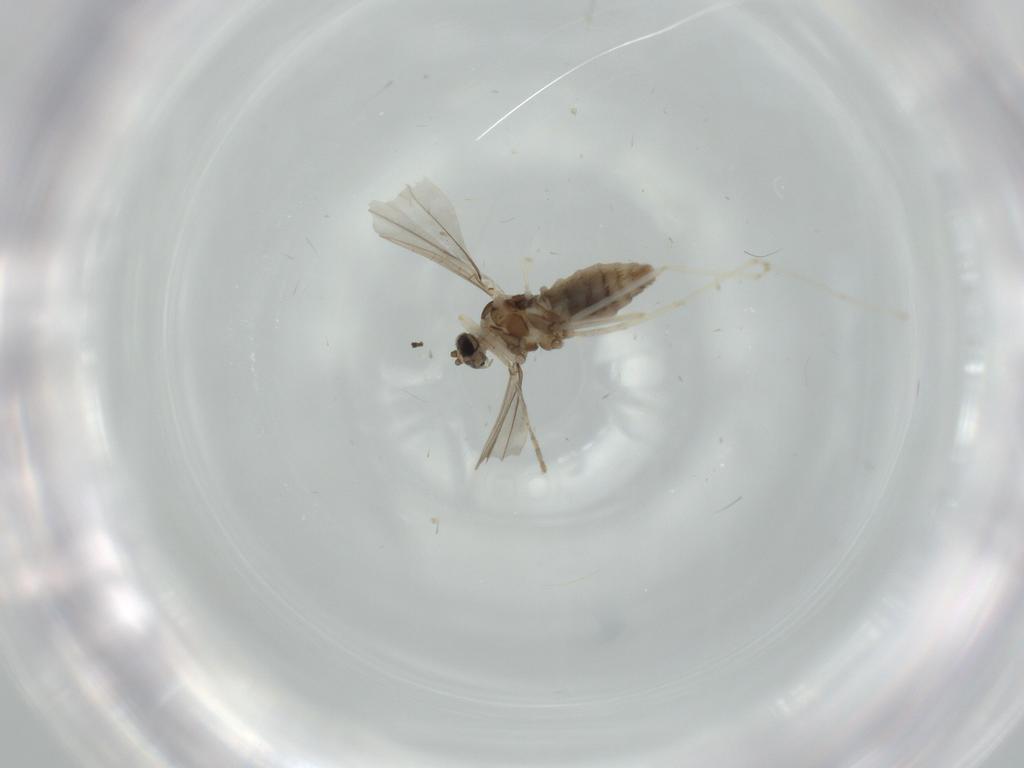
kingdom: Animalia
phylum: Arthropoda
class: Insecta
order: Diptera
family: Cecidomyiidae
